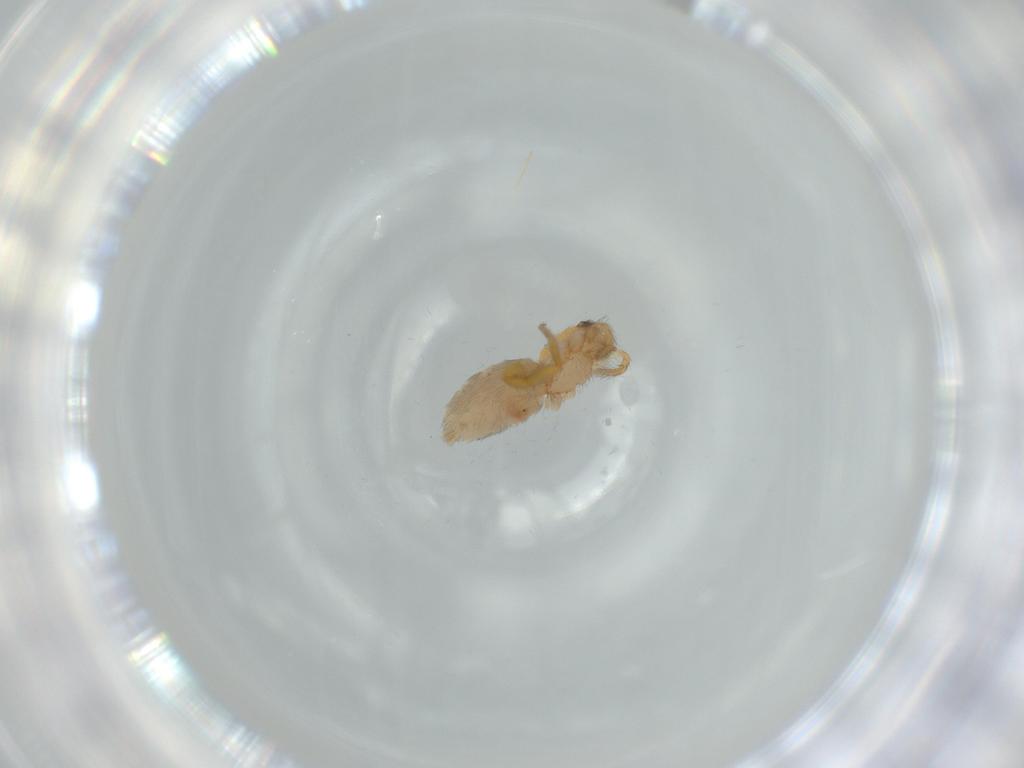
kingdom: Animalia
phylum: Arthropoda
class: Arachnida
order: Araneae
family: Oonopidae
